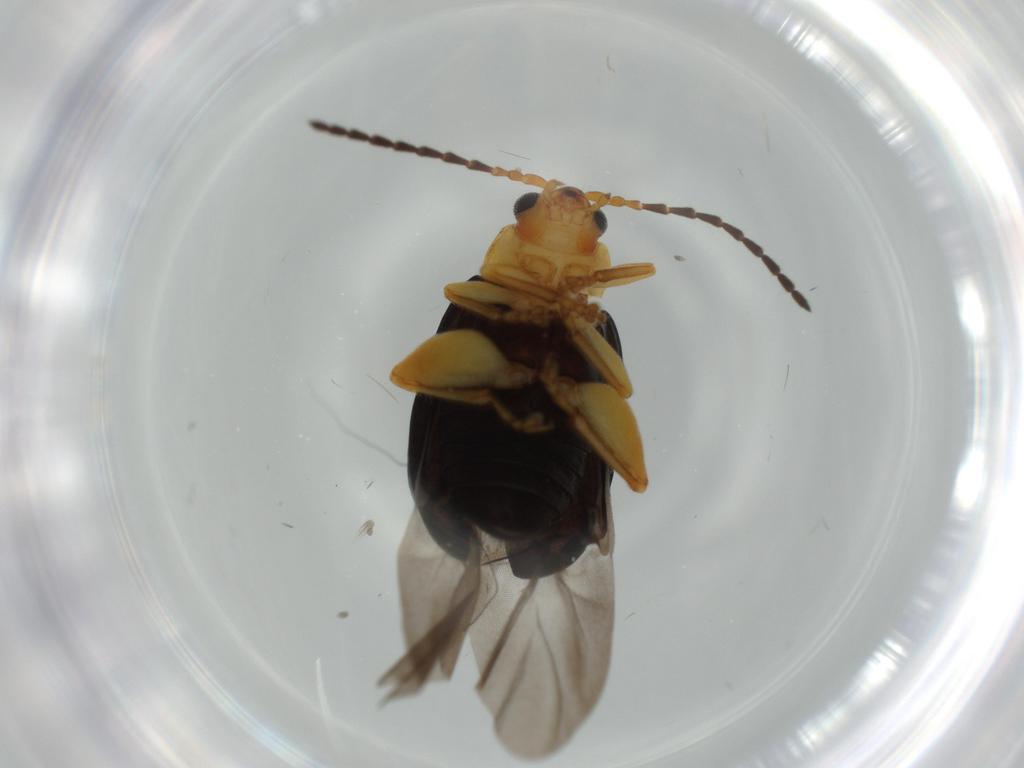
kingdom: Animalia
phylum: Arthropoda
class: Insecta
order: Coleoptera
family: Chrysomelidae
